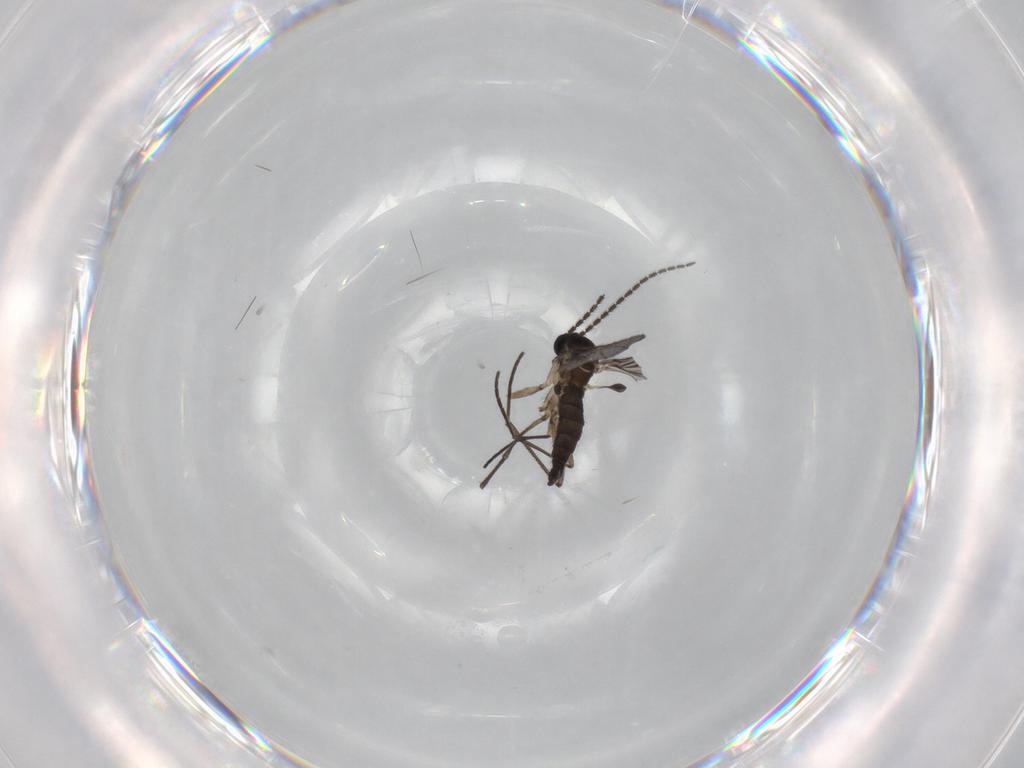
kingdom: Animalia
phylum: Arthropoda
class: Insecta
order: Diptera
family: Sciaridae
